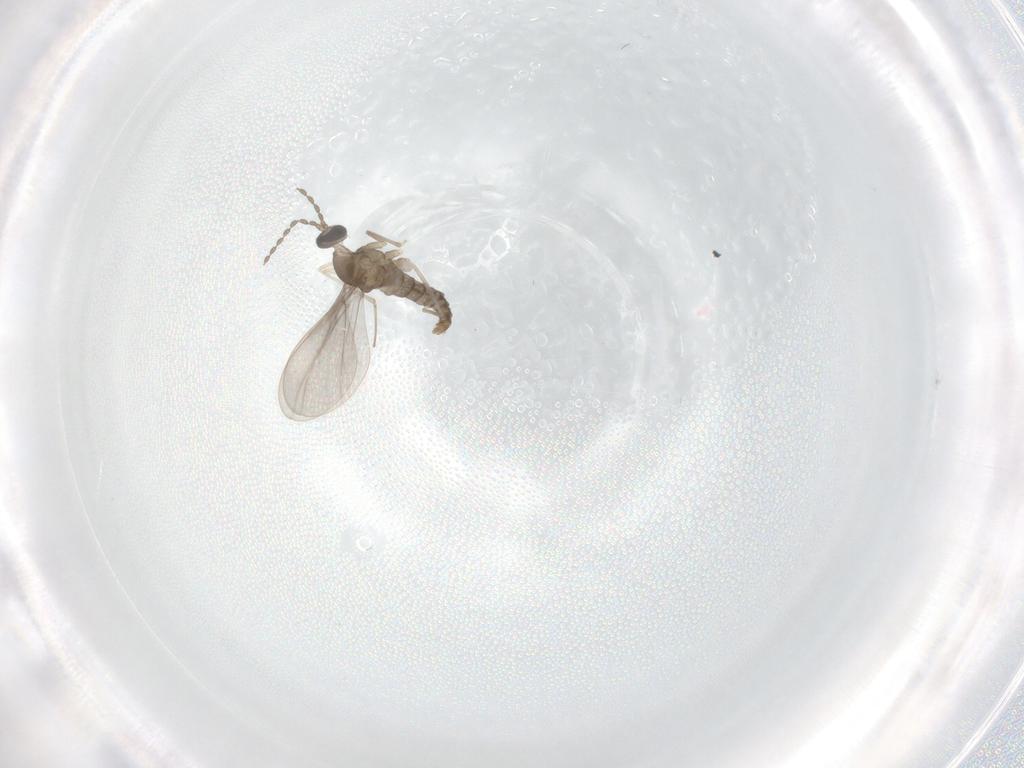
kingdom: Animalia
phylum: Arthropoda
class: Insecta
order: Diptera
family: Cecidomyiidae
